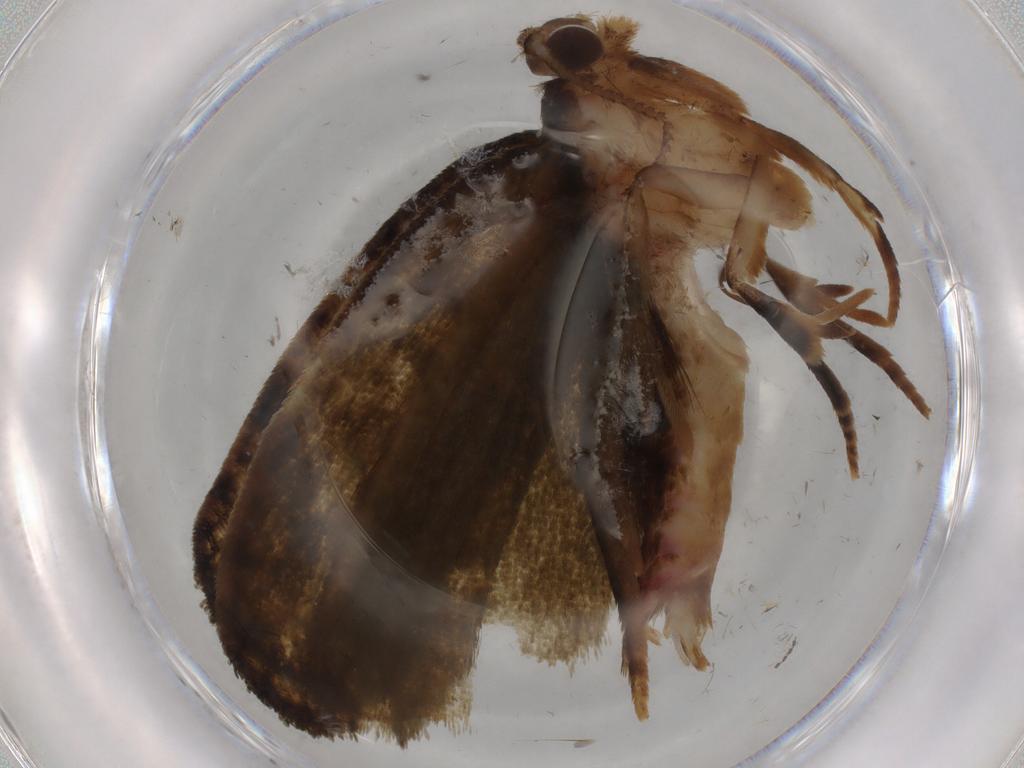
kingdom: Animalia
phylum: Arthropoda
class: Insecta
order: Lepidoptera
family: Geometridae
